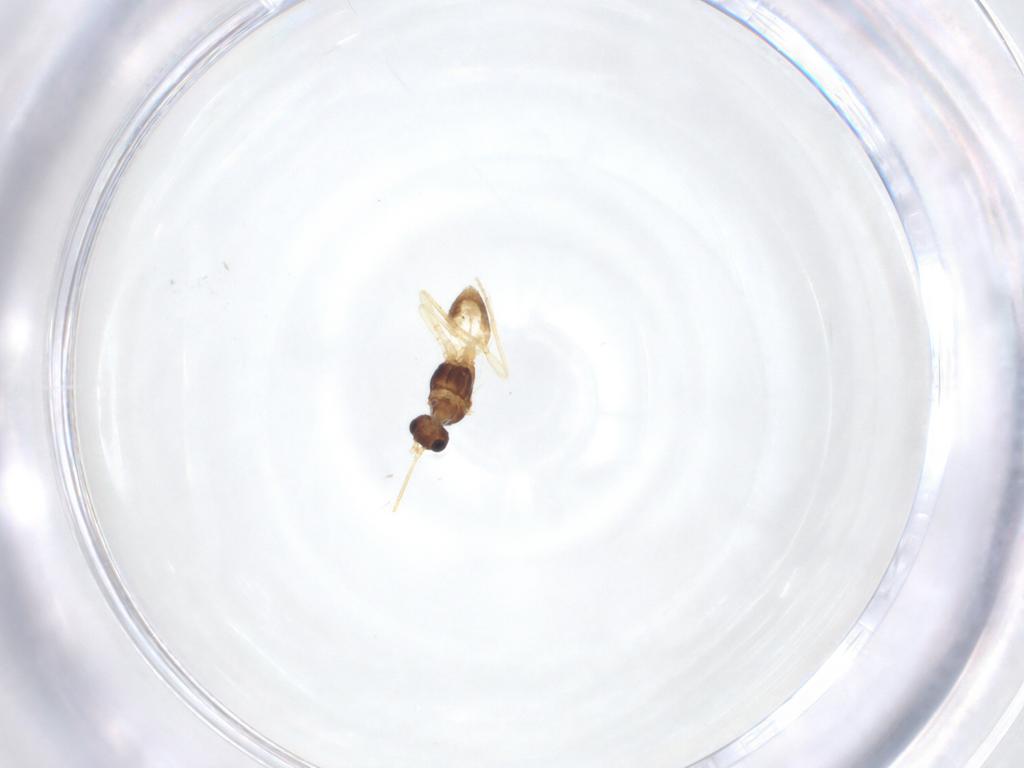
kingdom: Animalia
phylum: Arthropoda
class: Insecta
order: Hymenoptera
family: Braconidae
